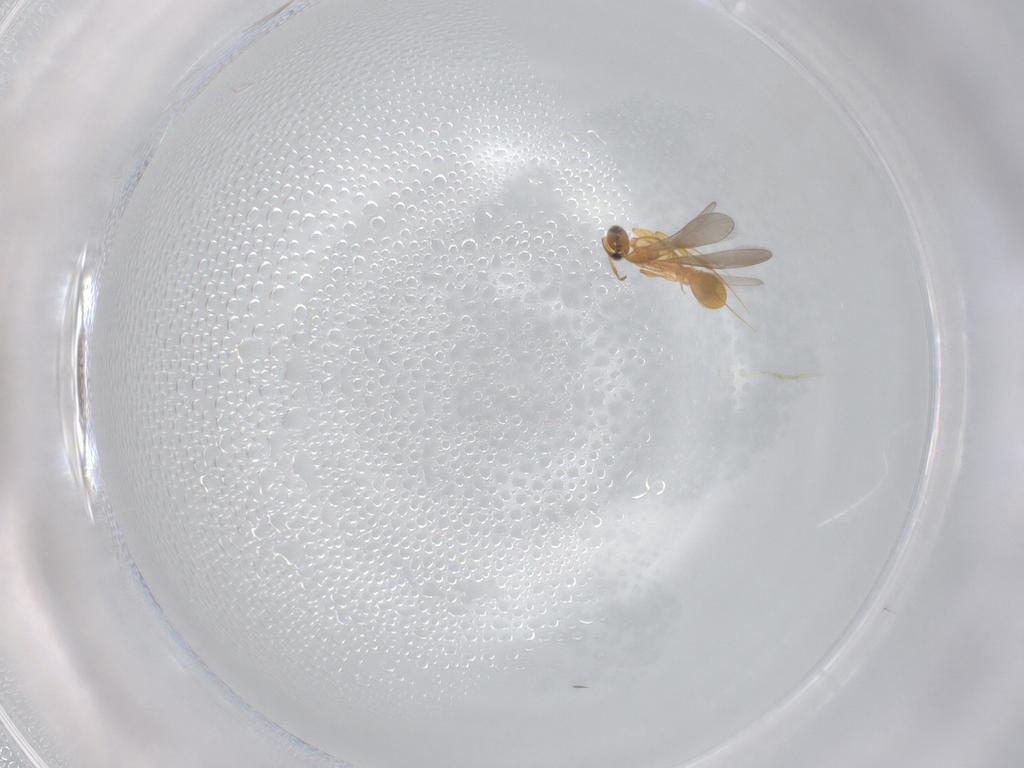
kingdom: Animalia
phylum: Arthropoda
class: Insecta
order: Hymenoptera
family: Platygastridae
